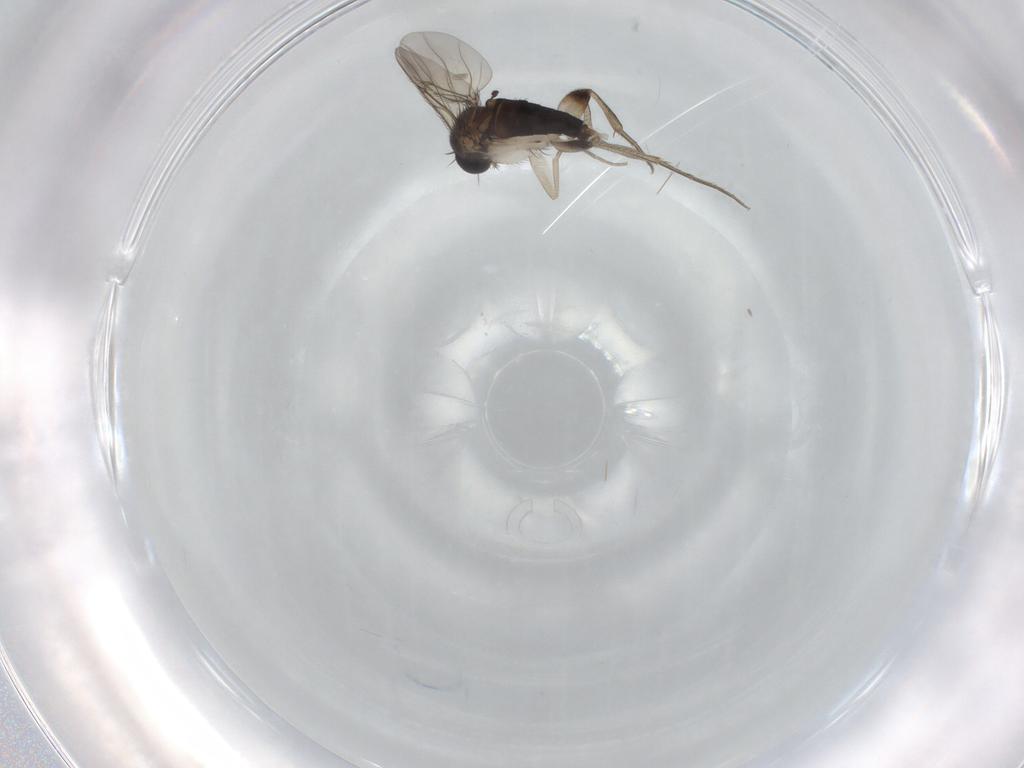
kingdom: Animalia
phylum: Arthropoda
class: Insecta
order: Diptera
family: Phoridae
